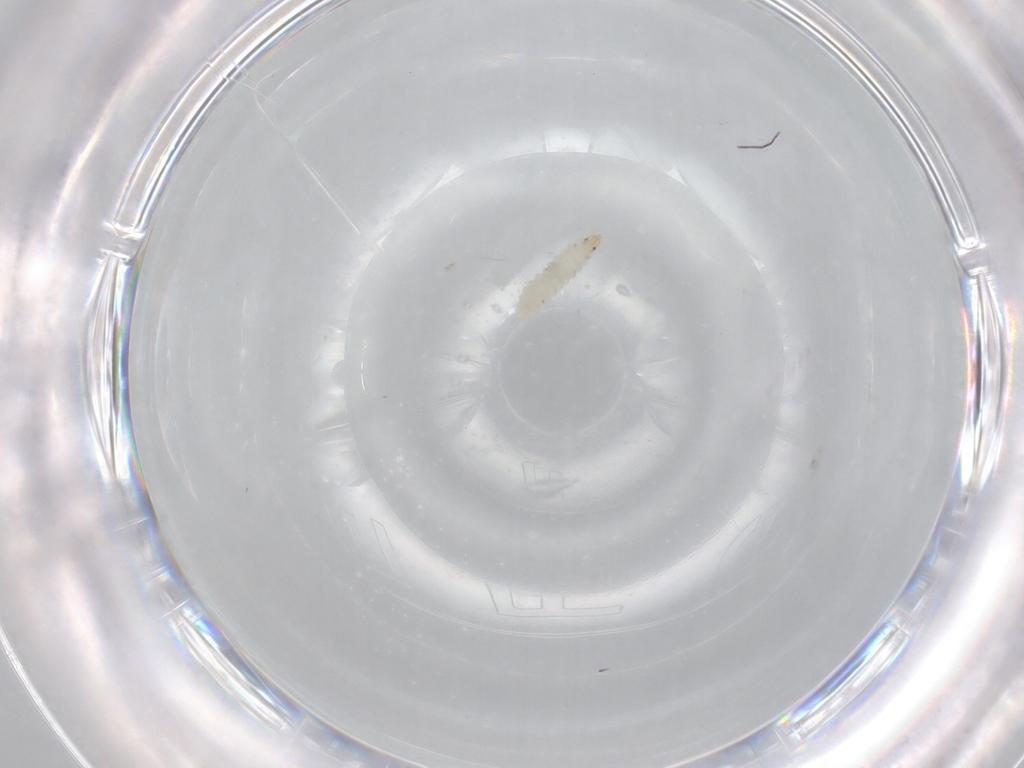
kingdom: Animalia
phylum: Arthropoda
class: Insecta
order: Diptera
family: Chironomidae
